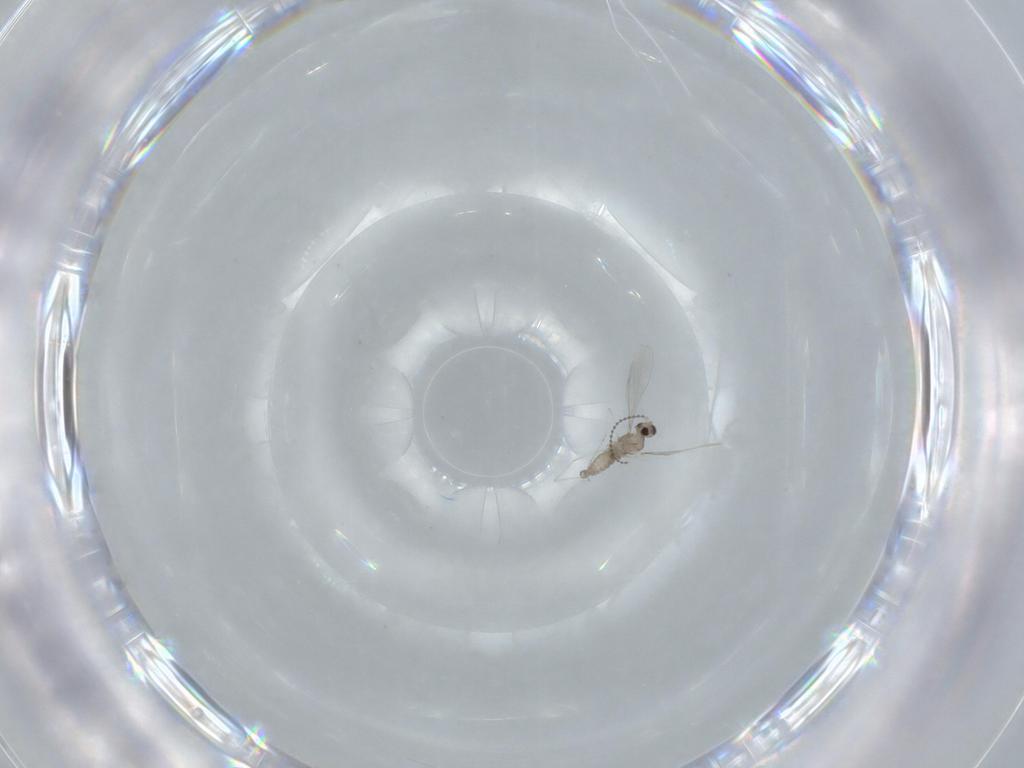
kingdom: Animalia
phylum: Arthropoda
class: Insecta
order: Diptera
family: Cecidomyiidae
